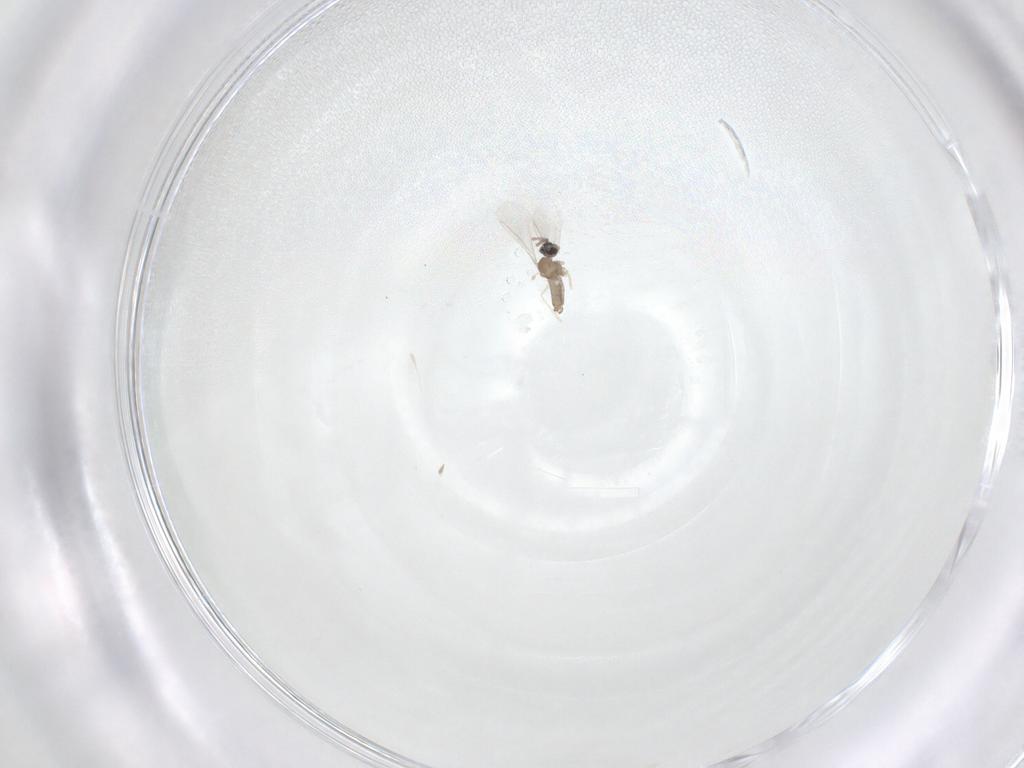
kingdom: Animalia
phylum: Arthropoda
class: Insecta
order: Diptera
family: Cecidomyiidae
